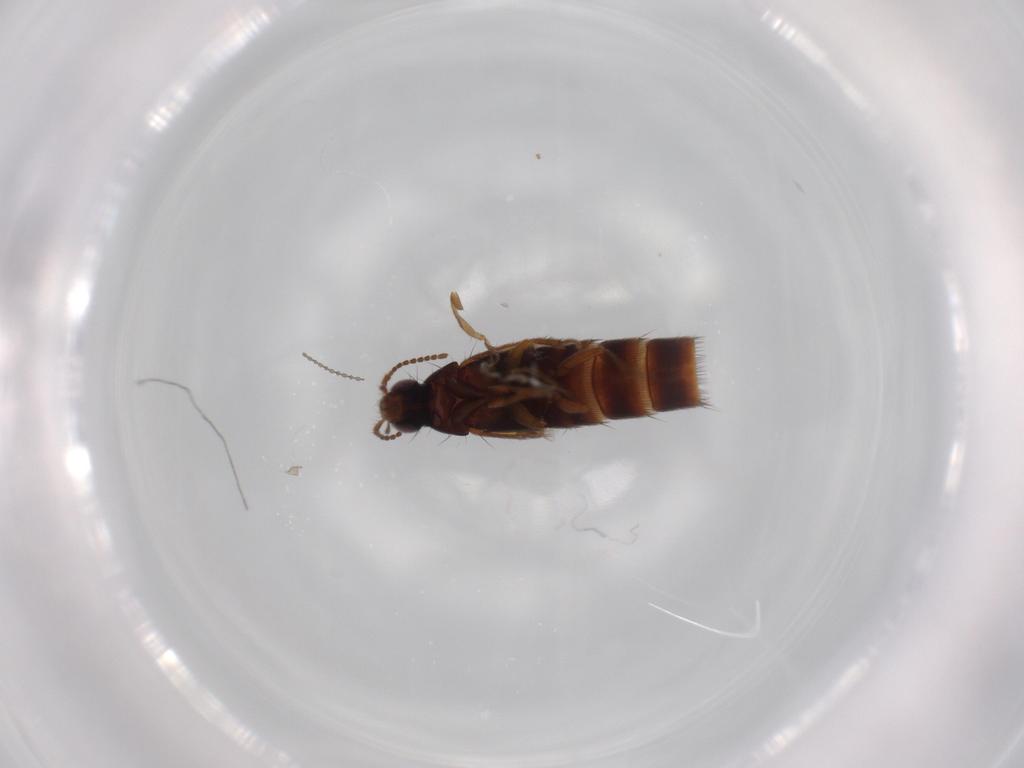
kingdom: Animalia
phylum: Arthropoda
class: Insecta
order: Coleoptera
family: Staphylinidae
